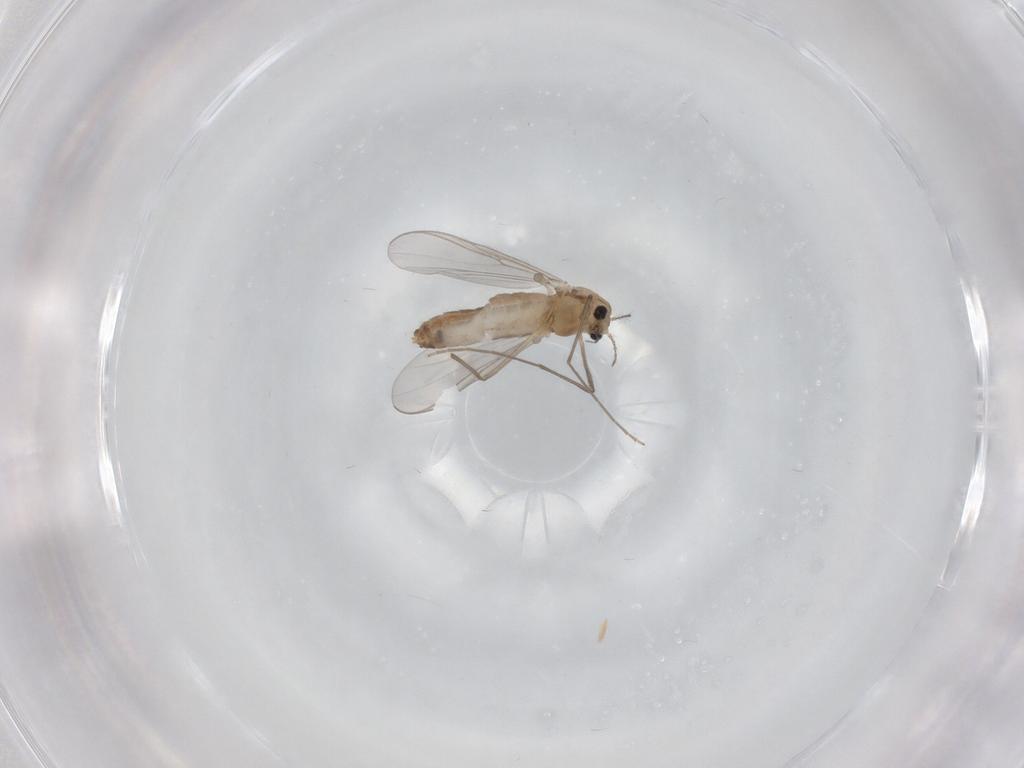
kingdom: Animalia
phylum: Arthropoda
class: Insecta
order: Diptera
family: Chironomidae
